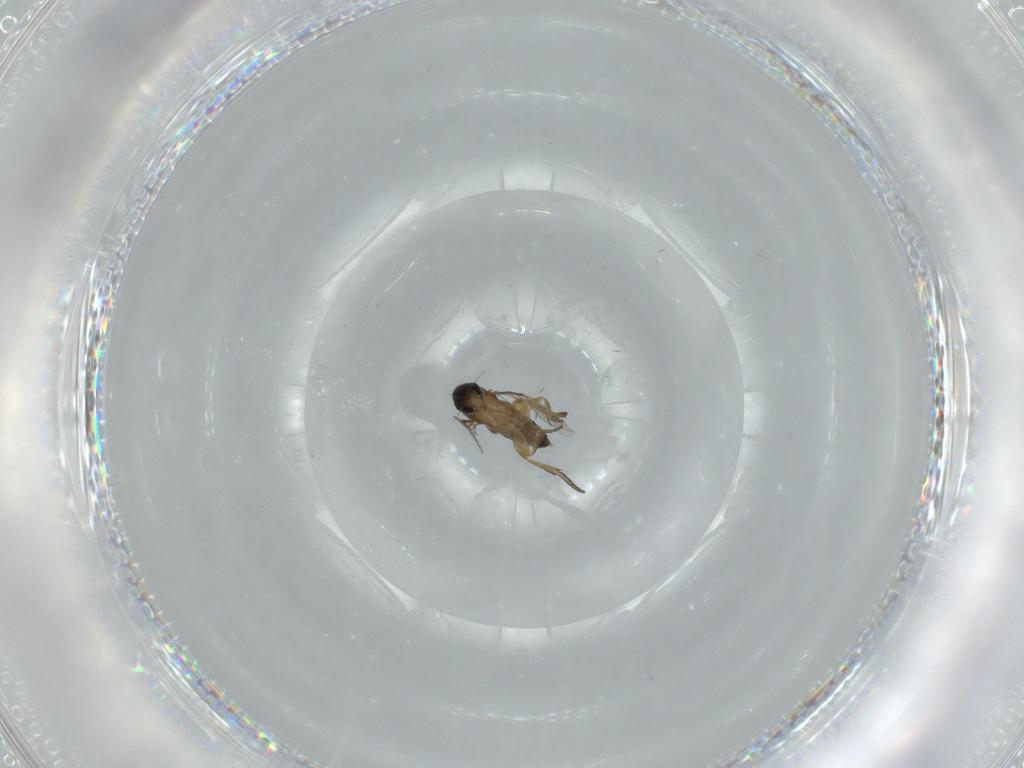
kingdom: Animalia
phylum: Arthropoda
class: Insecta
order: Diptera
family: Phoridae
